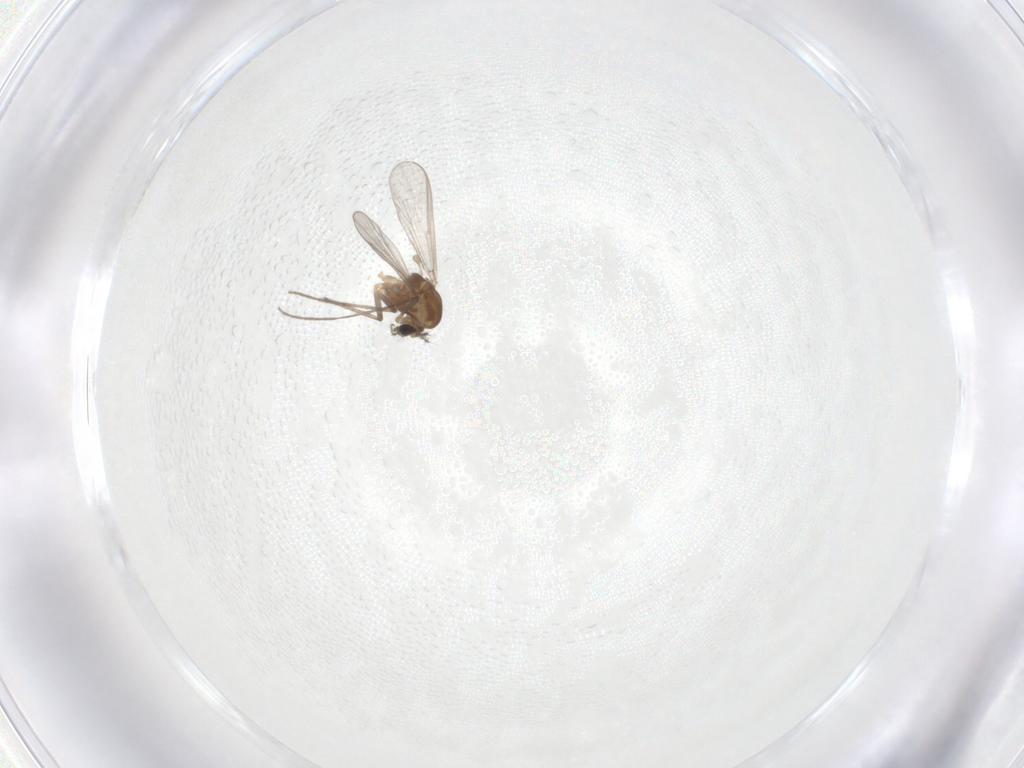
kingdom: Animalia
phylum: Arthropoda
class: Insecta
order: Diptera
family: Chironomidae
